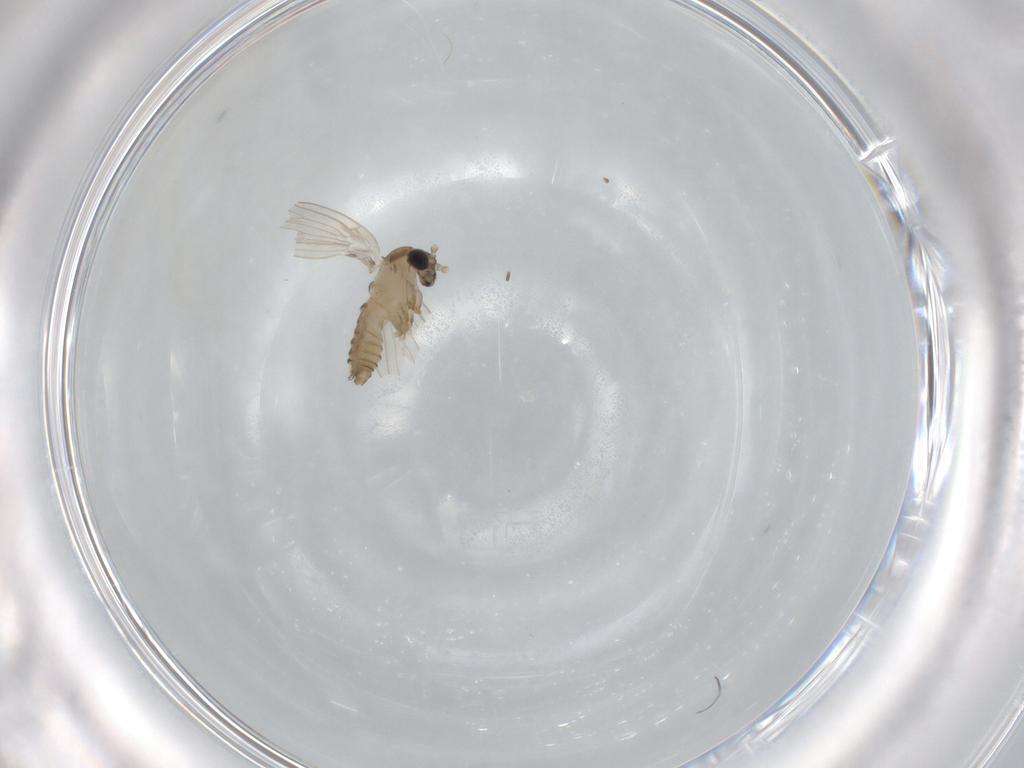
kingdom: Animalia
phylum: Arthropoda
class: Insecta
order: Diptera
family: Psychodidae
